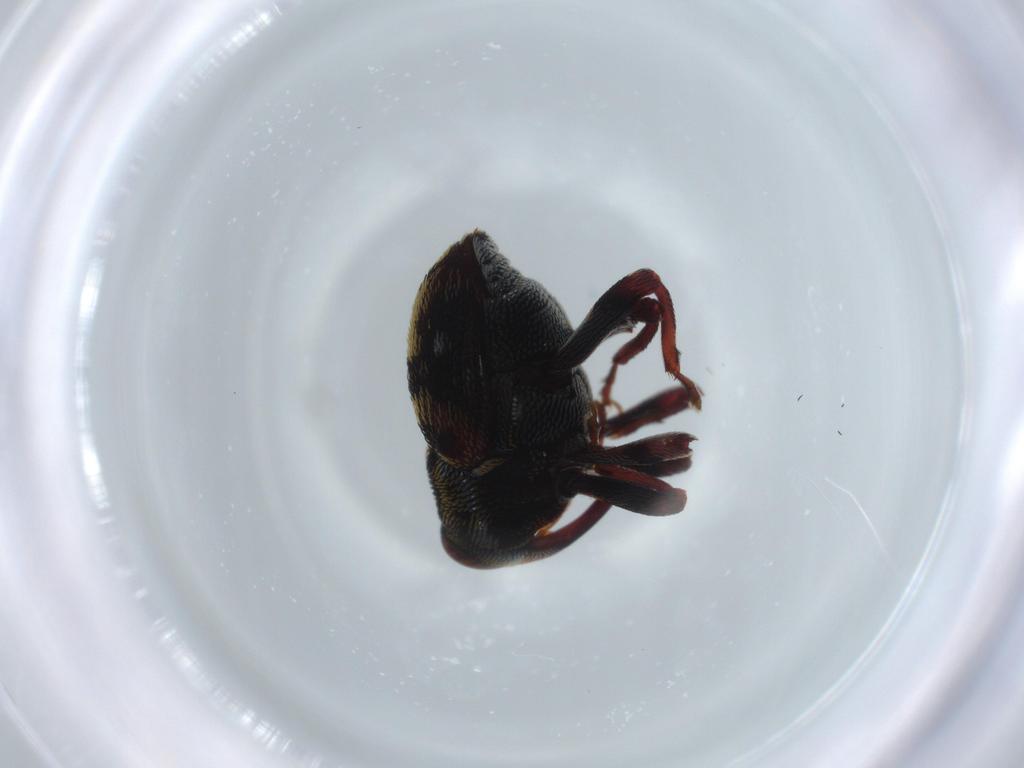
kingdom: Animalia
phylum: Arthropoda
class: Insecta
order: Coleoptera
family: Curculionidae
